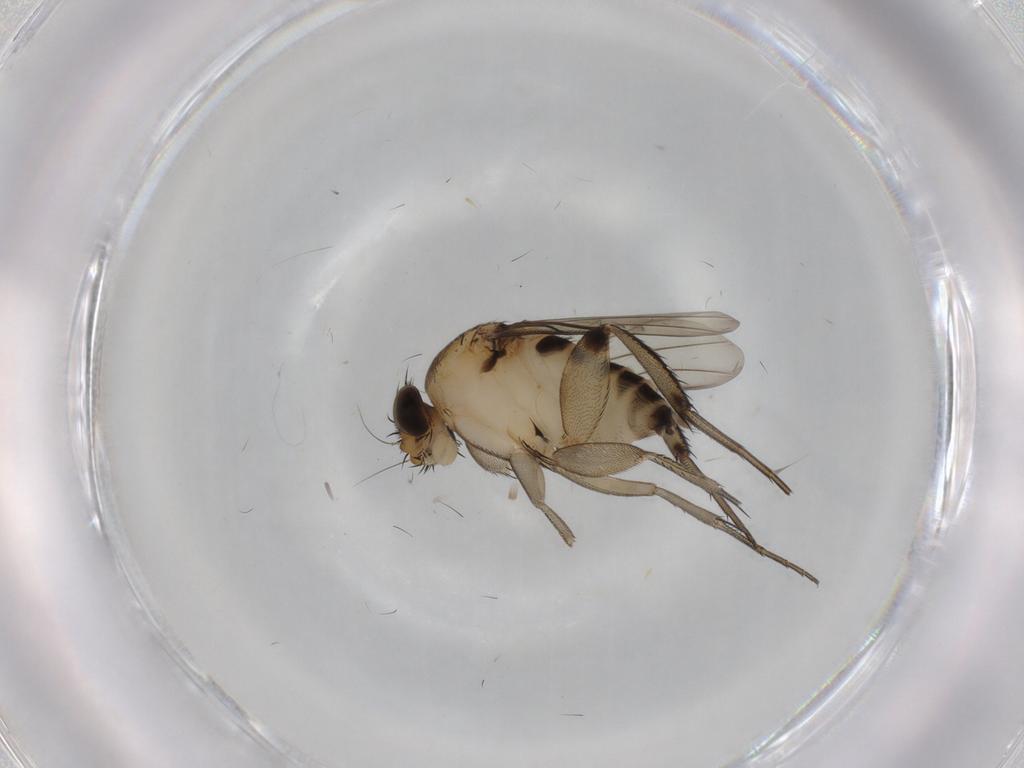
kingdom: Animalia
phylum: Arthropoda
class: Insecta
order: Diptera
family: Phoridae
